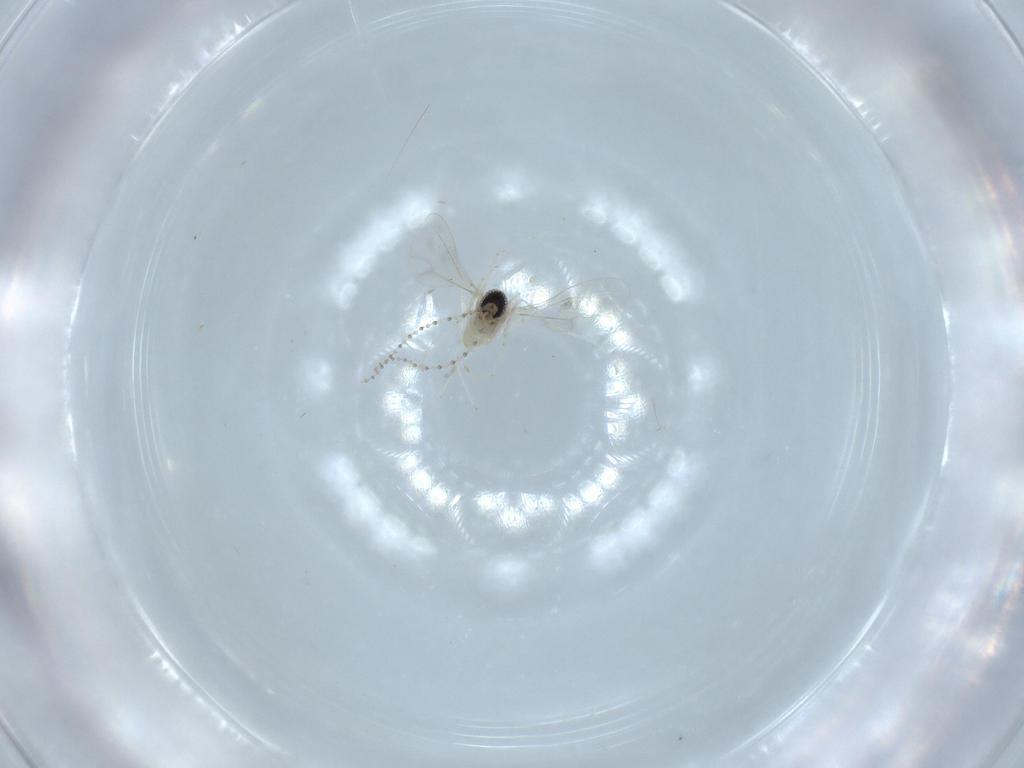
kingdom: Animalia
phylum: Arthropoda
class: Insecta
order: Diptera
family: Cecidomyiidae
